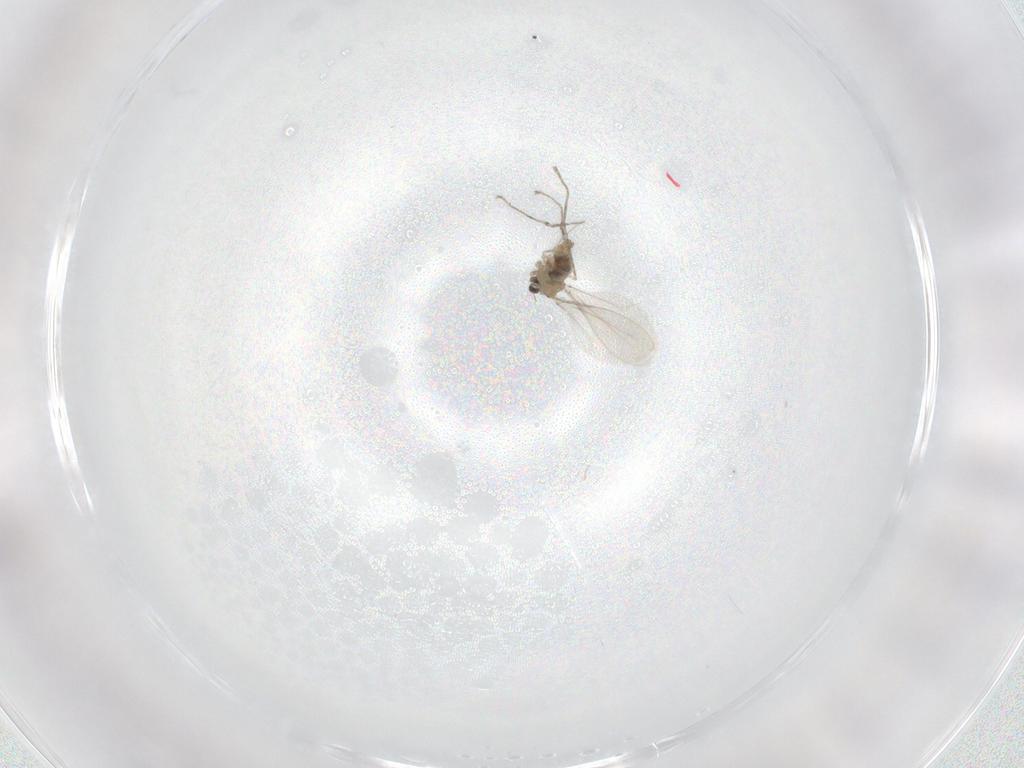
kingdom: Animalia
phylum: Arthropoda
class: Insecta
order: Diptera
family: Cecidomyiidae
